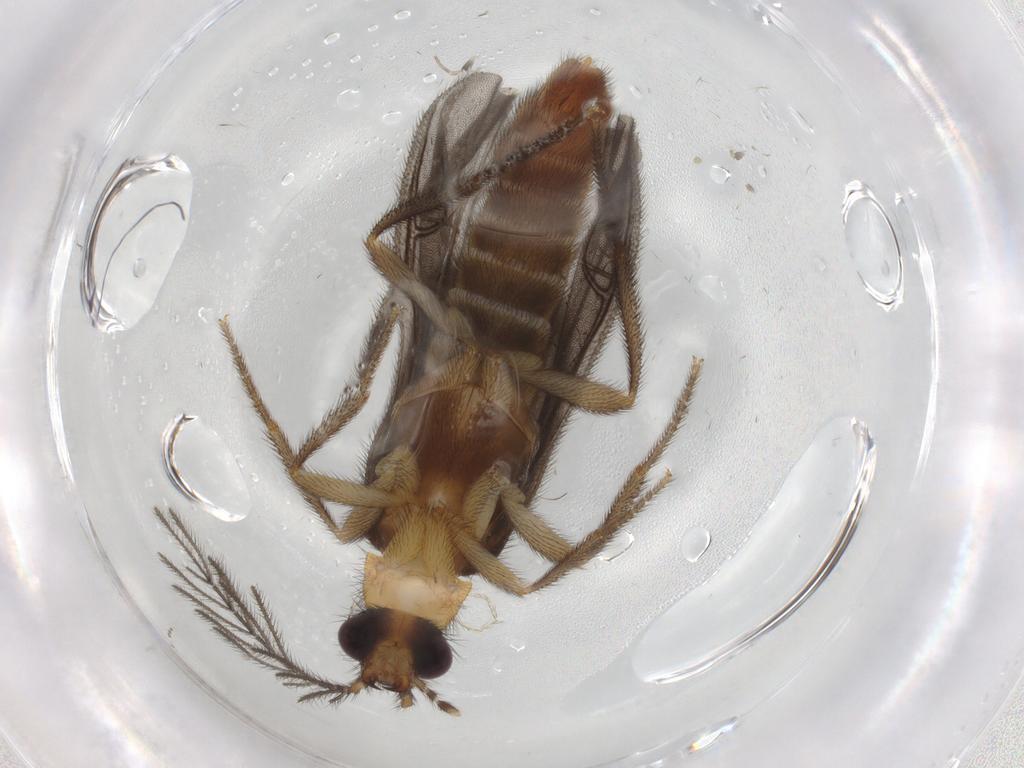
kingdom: Animalia
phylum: Arthropoda
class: Insecta
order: Coleoptera
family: Phengodidae
